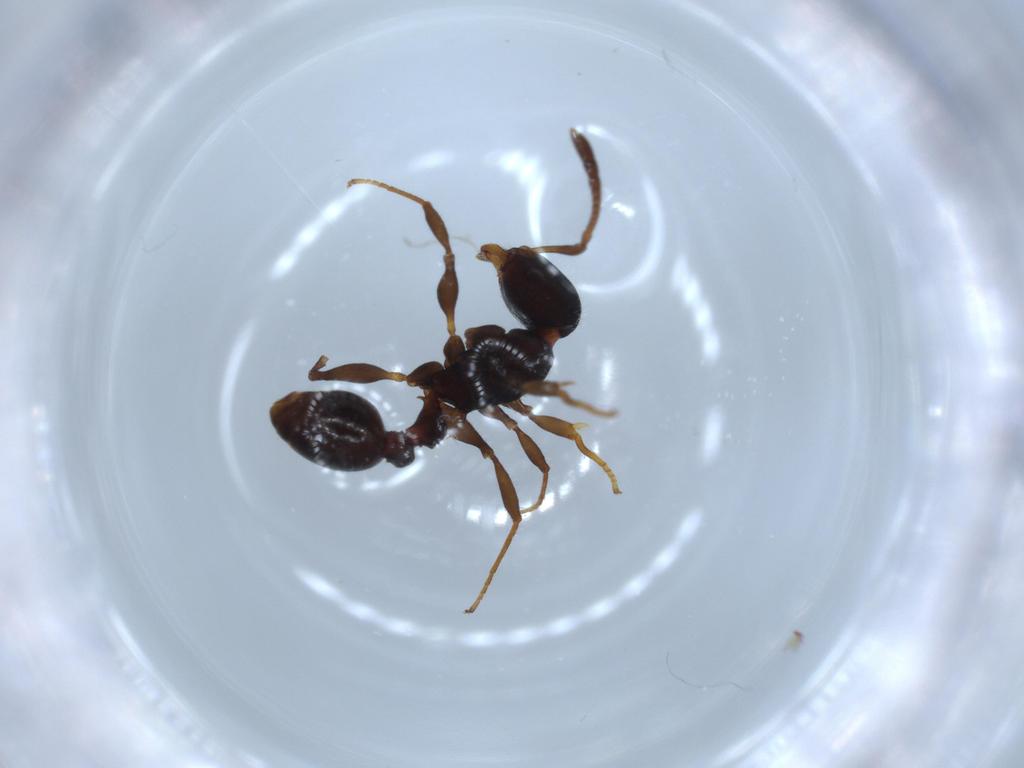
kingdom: Animalia
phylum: Arthropoda
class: Insecta
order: Hymenoptera
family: Formicidae
